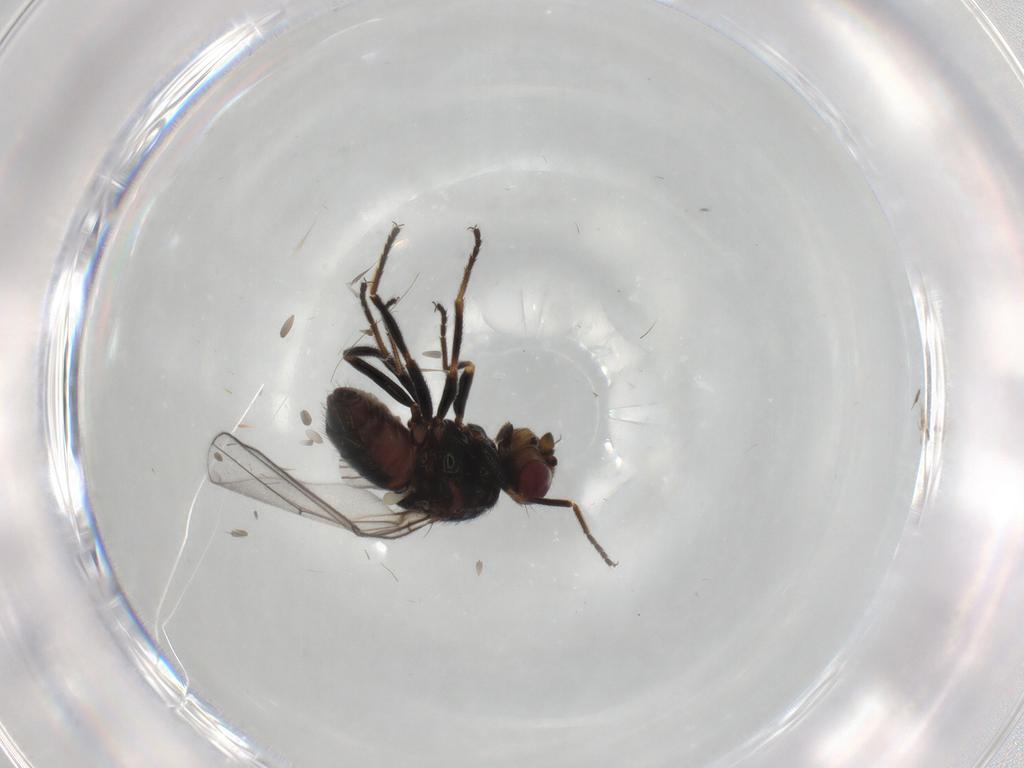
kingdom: Animalia
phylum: Arthropoda
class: Insecta
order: Diptera
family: Chloropidae
